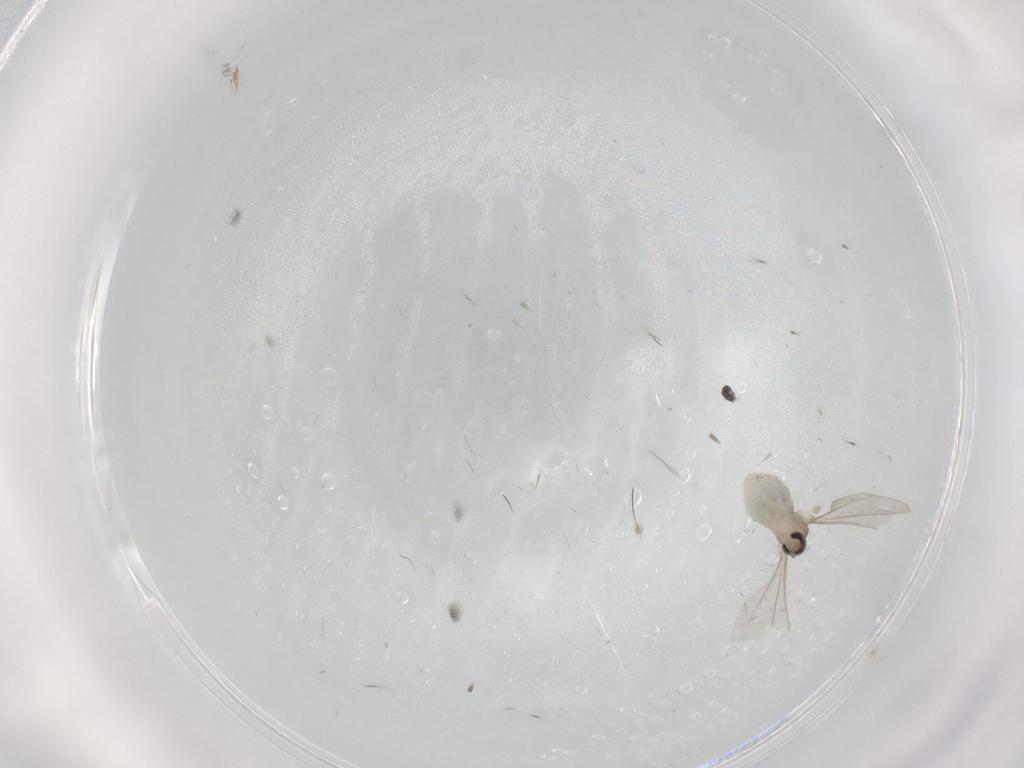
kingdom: Animalia
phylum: Arthropoda
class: Insecta
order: Diptera
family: Cecidomyiidae
